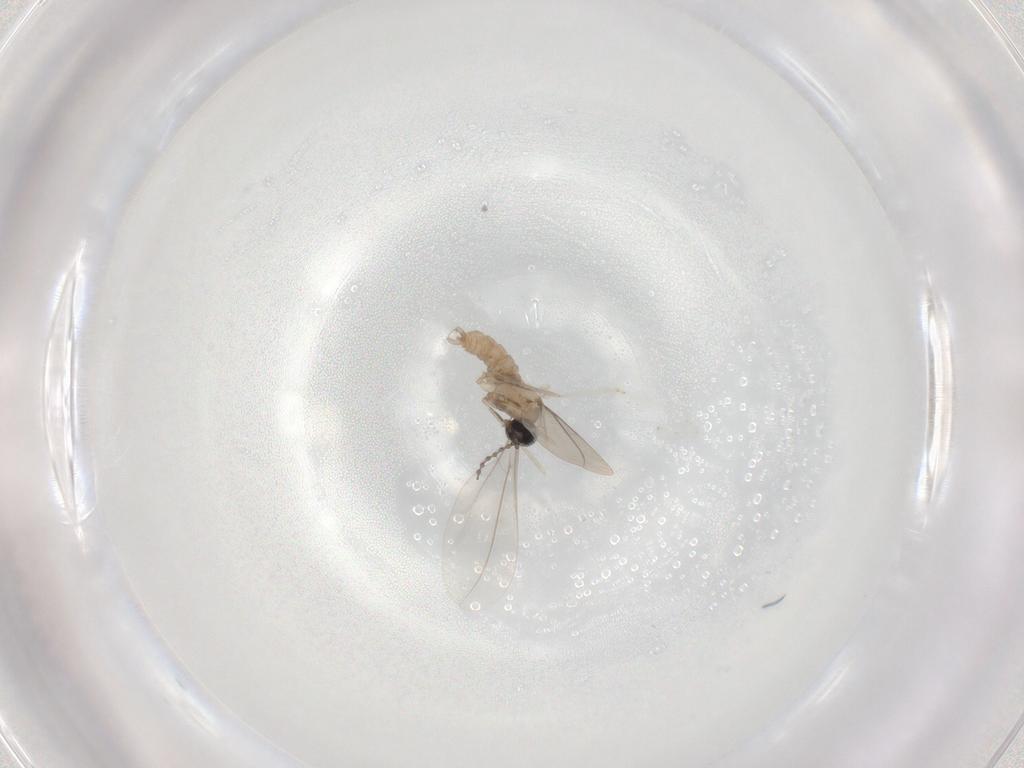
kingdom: Animalia
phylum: Arthropoda
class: Insecta
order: Diptera
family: Cecidomyiidae
